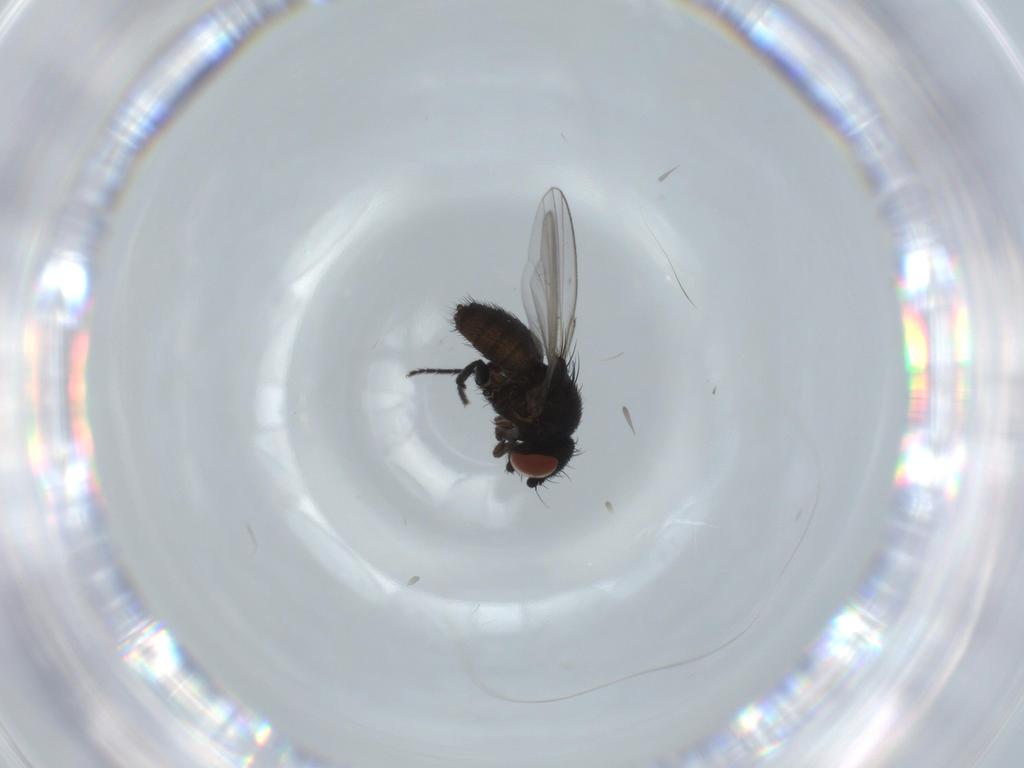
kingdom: Animalia
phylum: Arthropoda
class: Insecta
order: Diptera
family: Milichiidae
